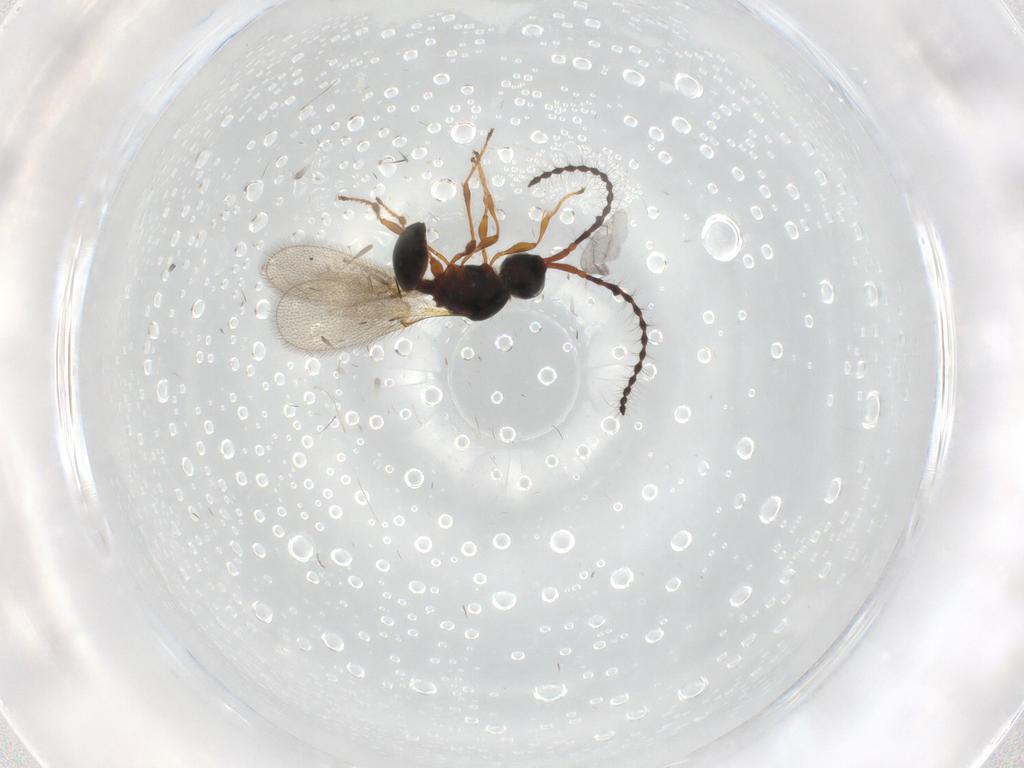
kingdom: Animalia
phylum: Arthropoda
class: Insecta
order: Hymenoptera
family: Diapriidae
